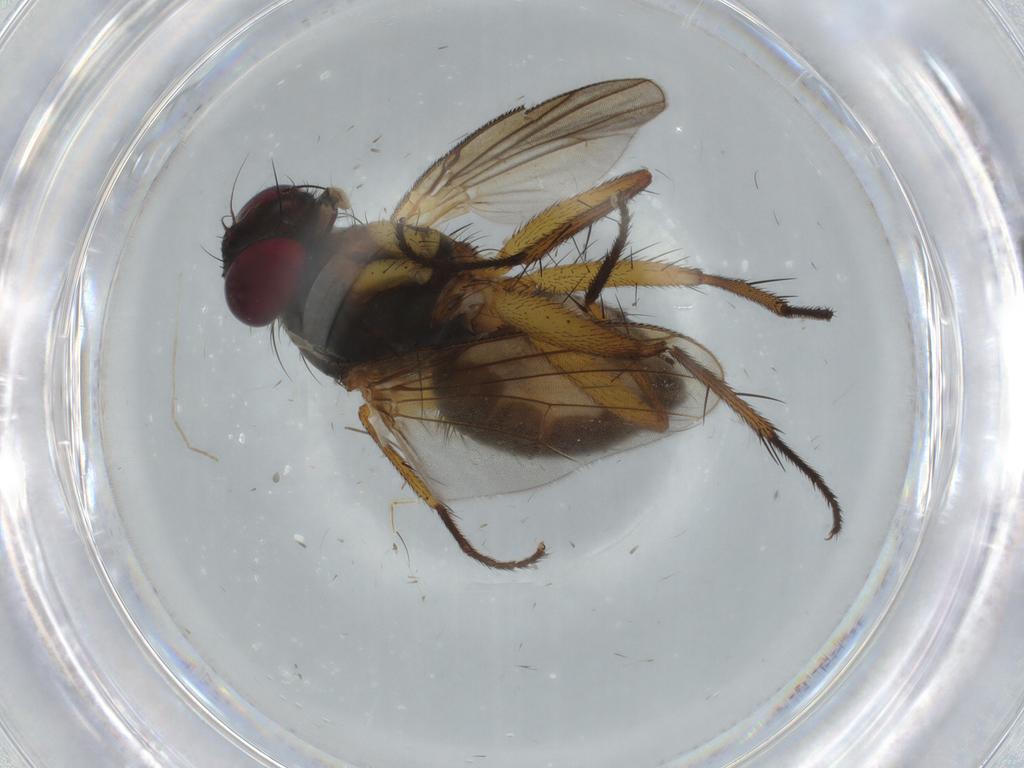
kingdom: Animalia
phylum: Arthropoda
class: Insecta
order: Diptera
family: Muscidae
